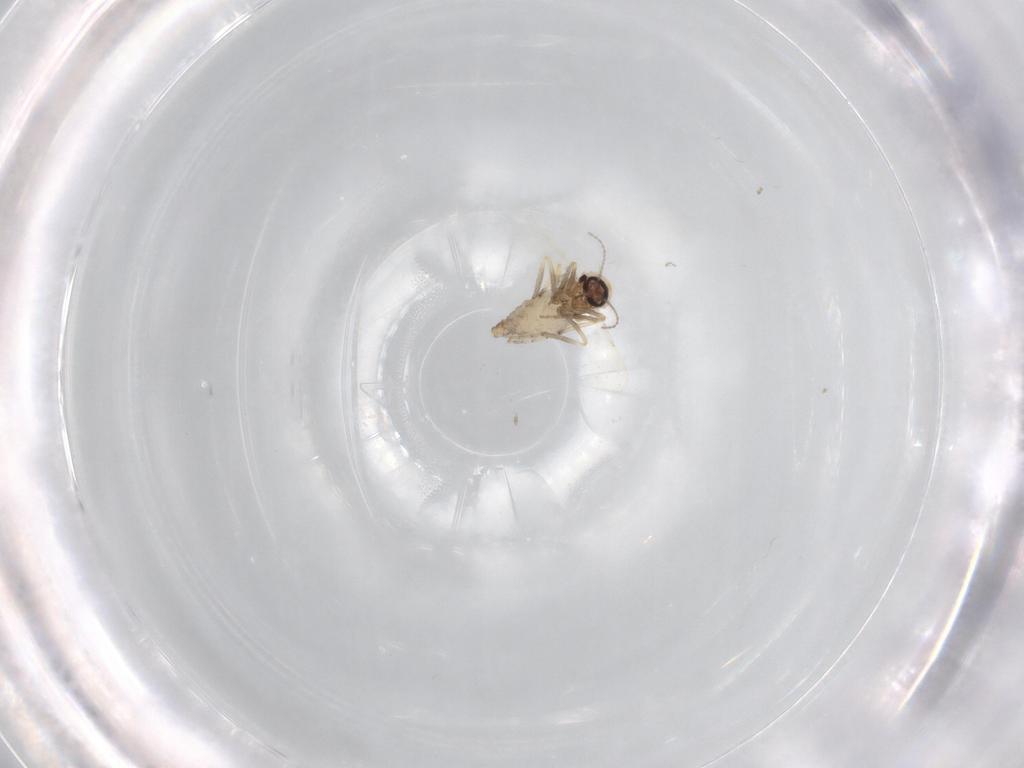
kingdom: Animalia
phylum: Arthropoda
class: Insecta
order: Diptera
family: Ceratopogonidae
